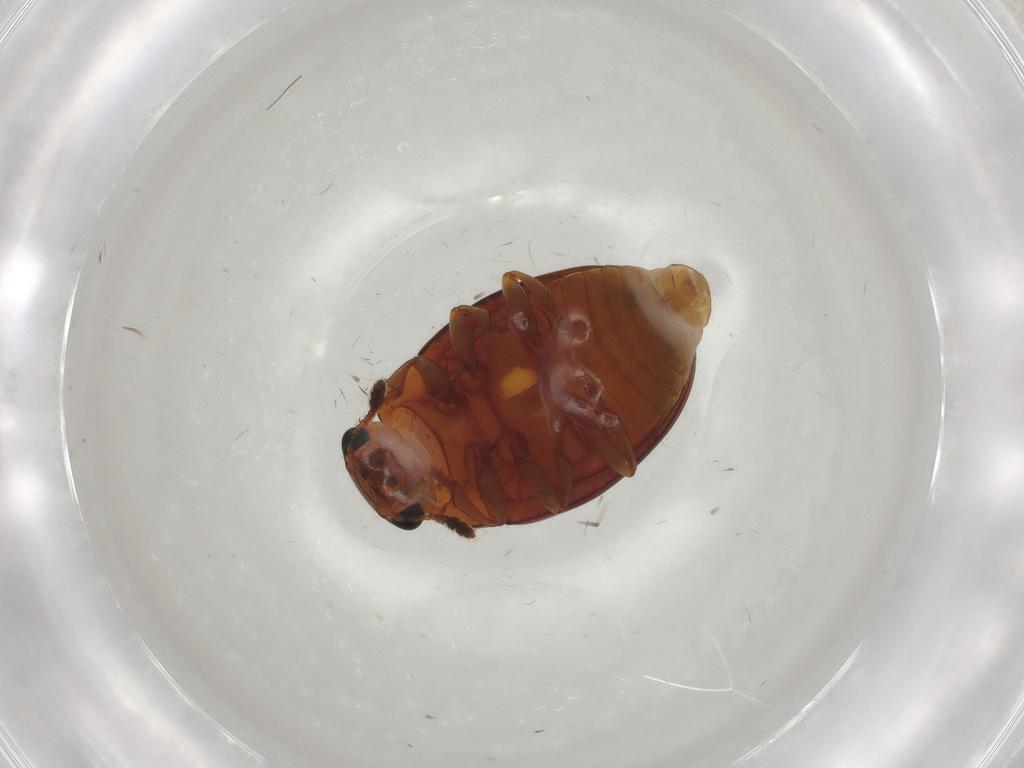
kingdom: Animalia
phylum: Arthropoda
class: Insecta
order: Coleoptera
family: Erotylidae
